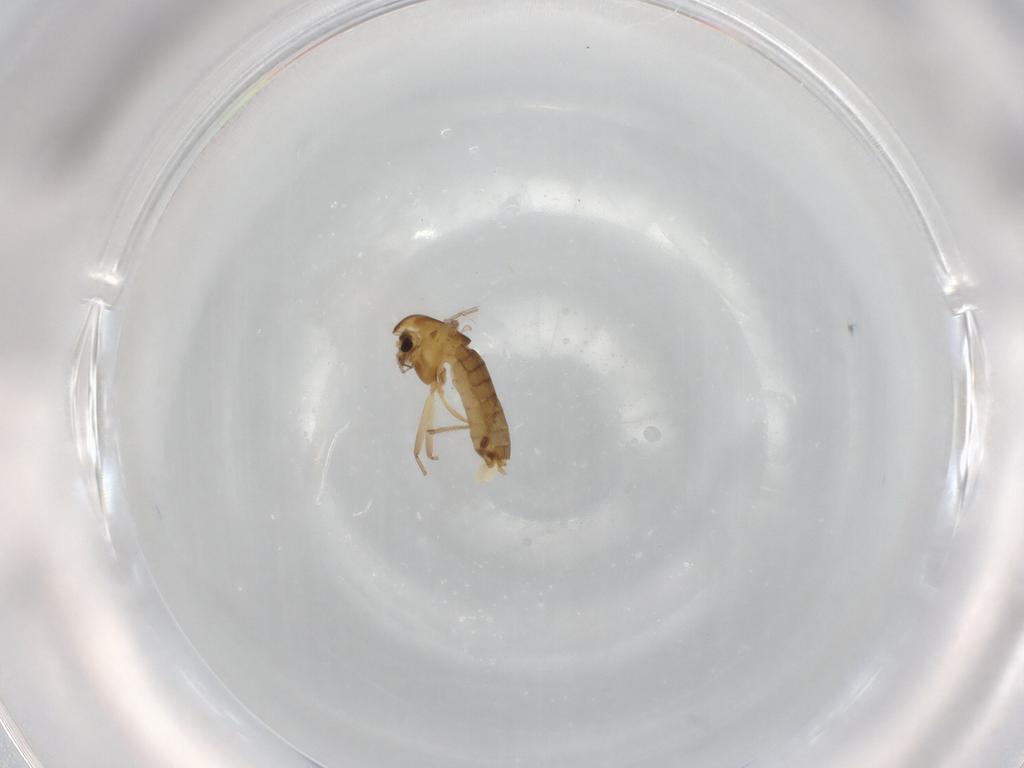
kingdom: Animalia
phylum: Arthropoda
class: Insecta
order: Diptera
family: Chironomidae
